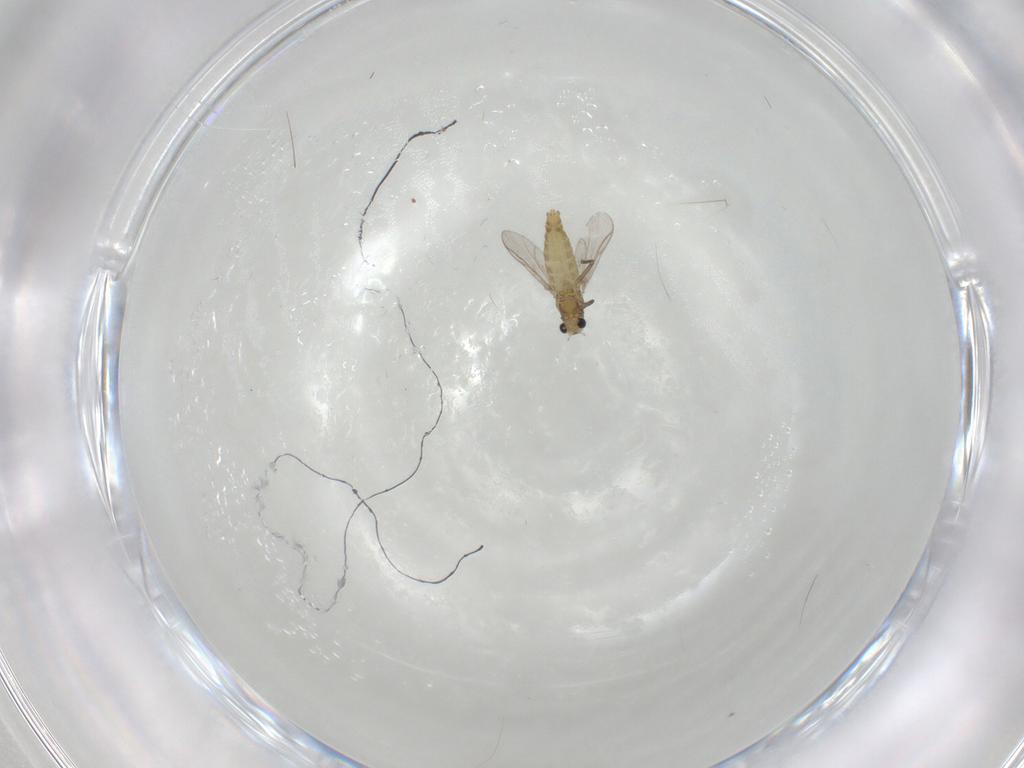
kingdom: Animalia
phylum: Arthropoda
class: Insecta
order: Diptera
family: Chironomidae
